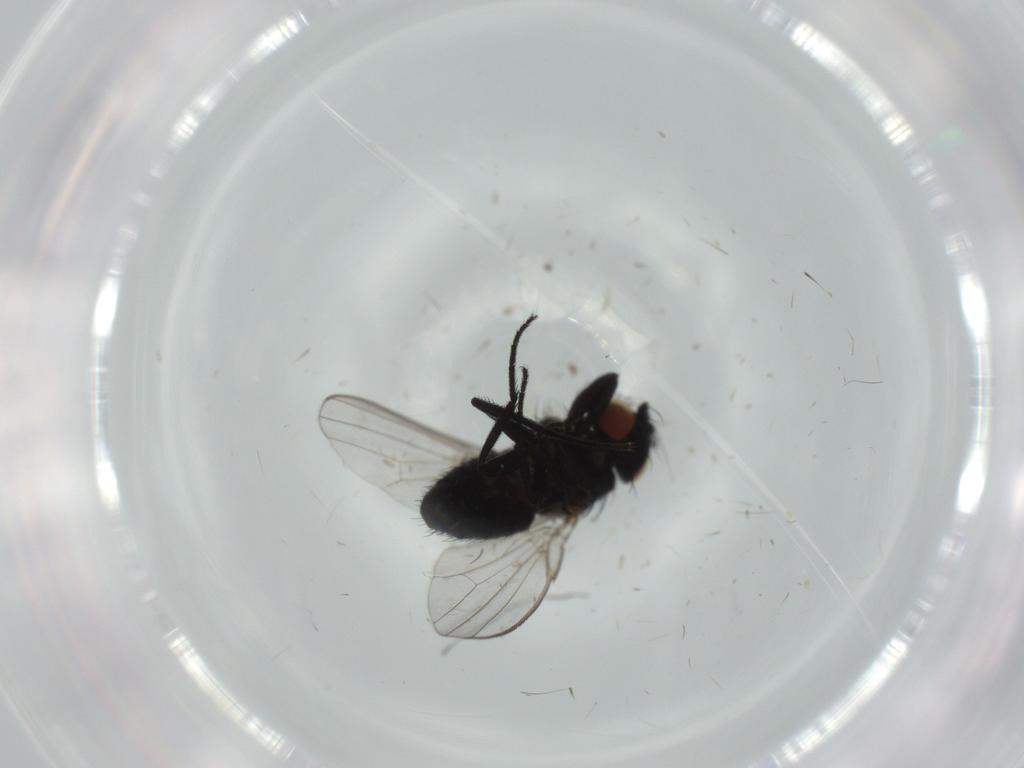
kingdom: Animalia
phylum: Arthropoda
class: Insecta
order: Diptera
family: Milichiidae
